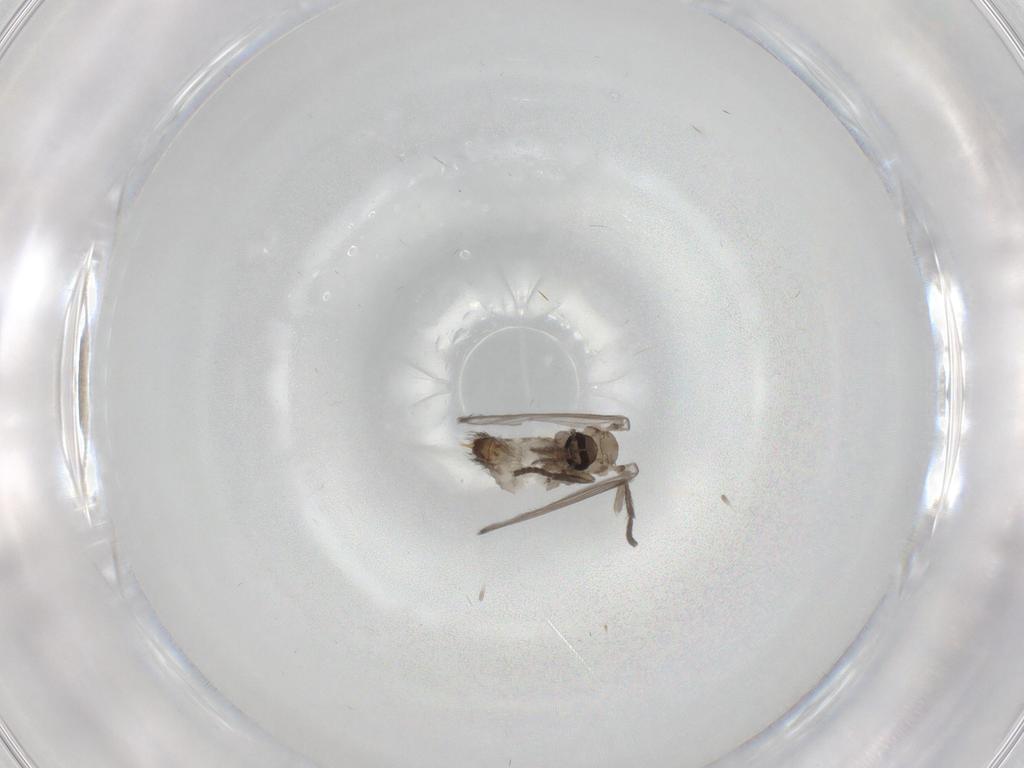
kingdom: Animalia
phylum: Arthropoda
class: Insecta
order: Diptera
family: Psychodidae
